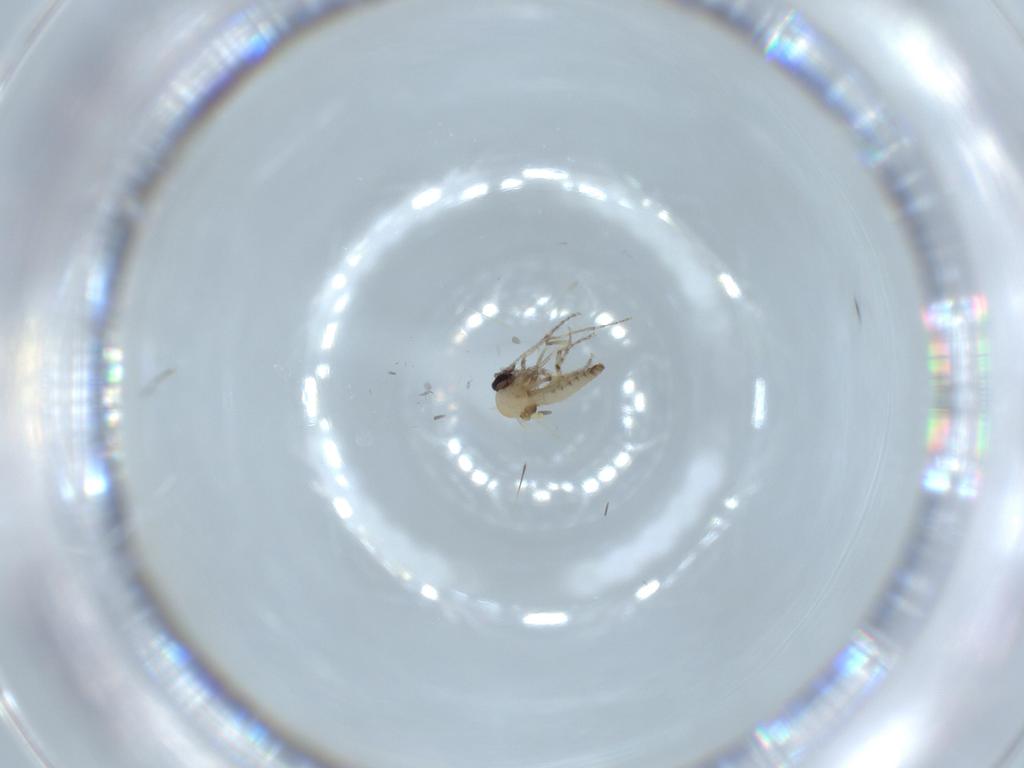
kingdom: Animalia
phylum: Arthropoda
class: Insecta
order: Diptera
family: Ceratopogonidae
